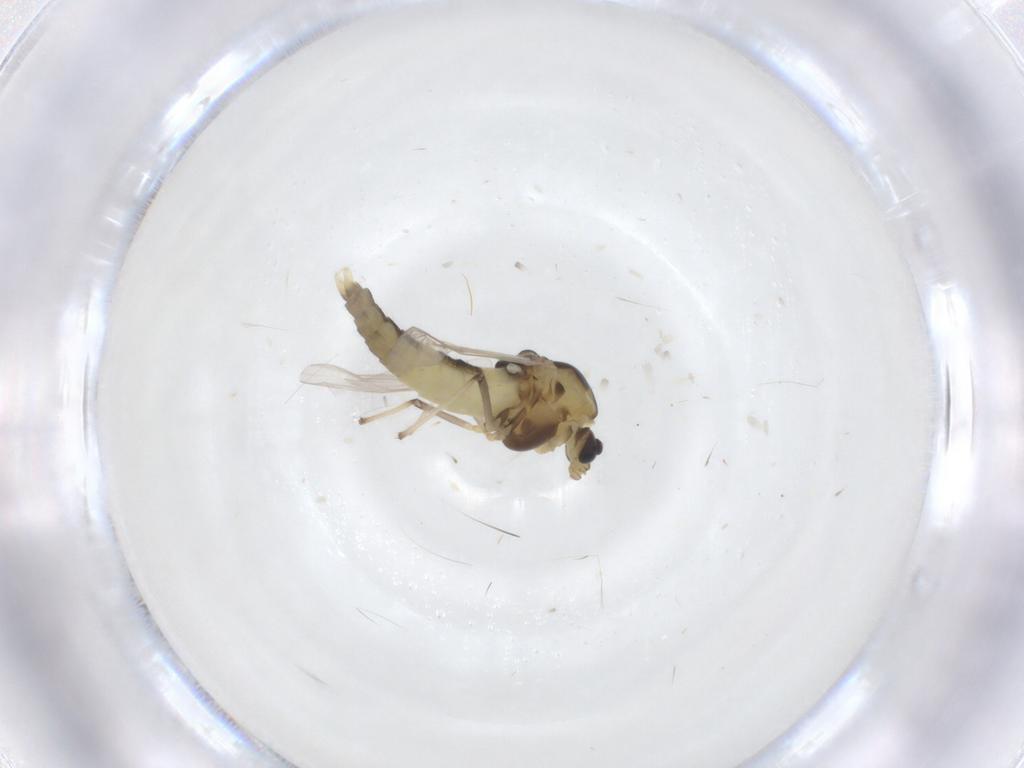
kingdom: Animalia
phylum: Arthropoda
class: Insecta
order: Diptera
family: Chironomidae
